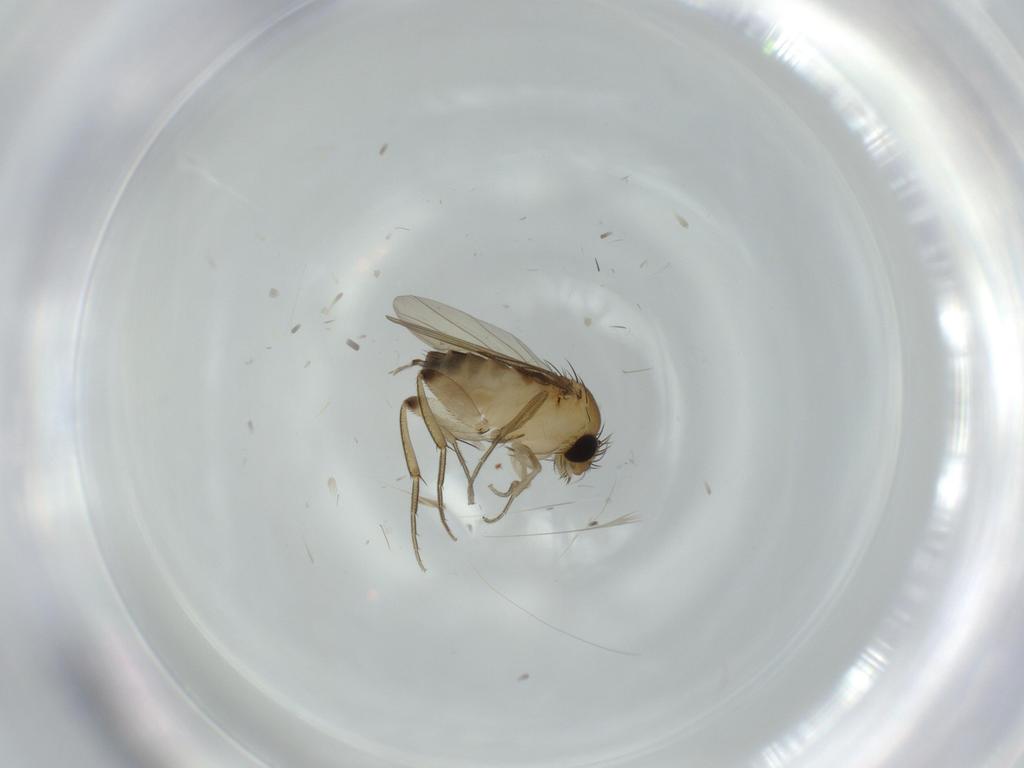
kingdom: Animalia
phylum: Arthropoda
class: Insecta
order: Diptera
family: Phoridae
